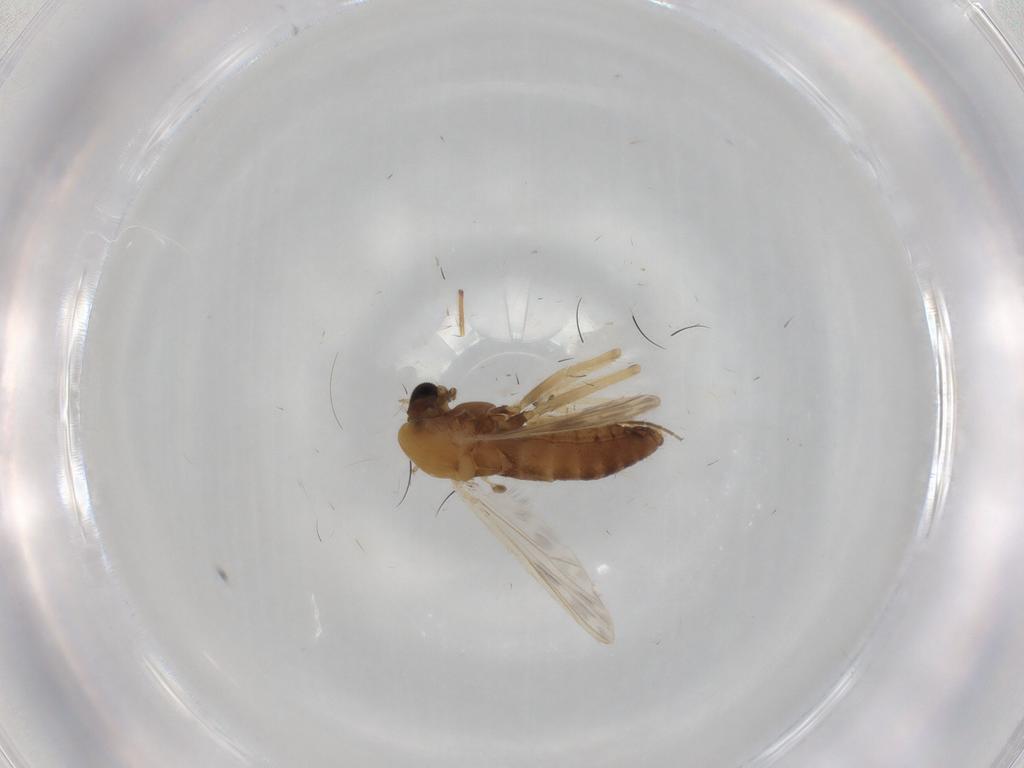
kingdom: Animalia
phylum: Arthropoda
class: Insecta
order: Diptera
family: Chironomidae
